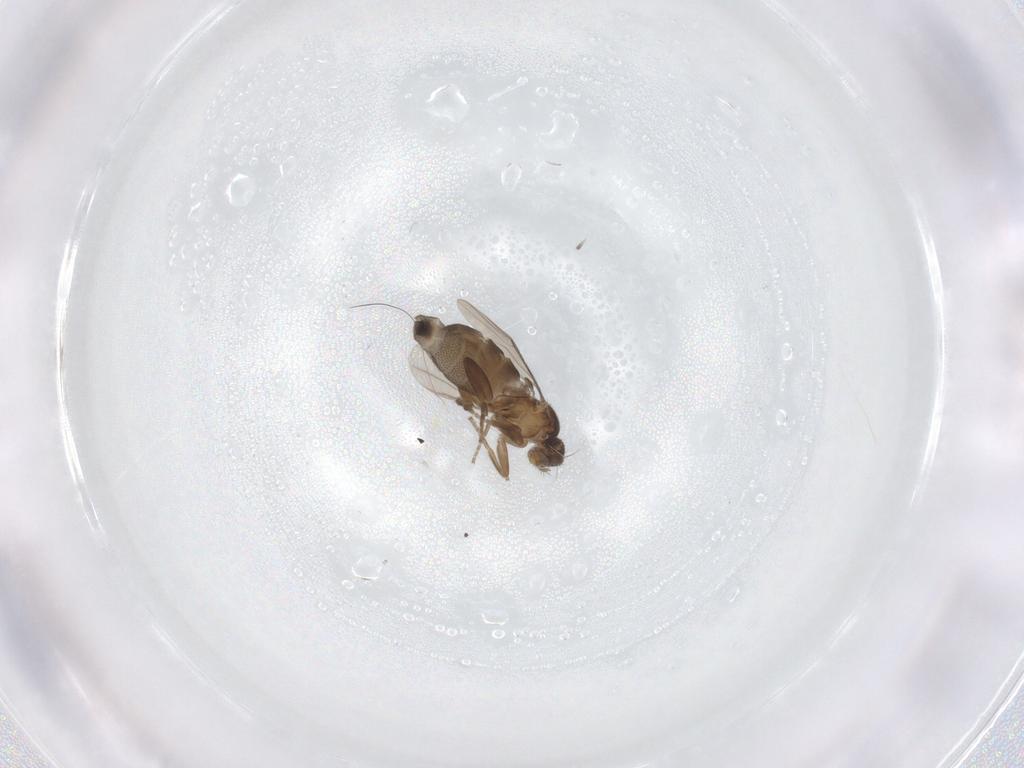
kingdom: Animalia
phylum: Arthropoda
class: Insecta
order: Diptera
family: Phoridae
